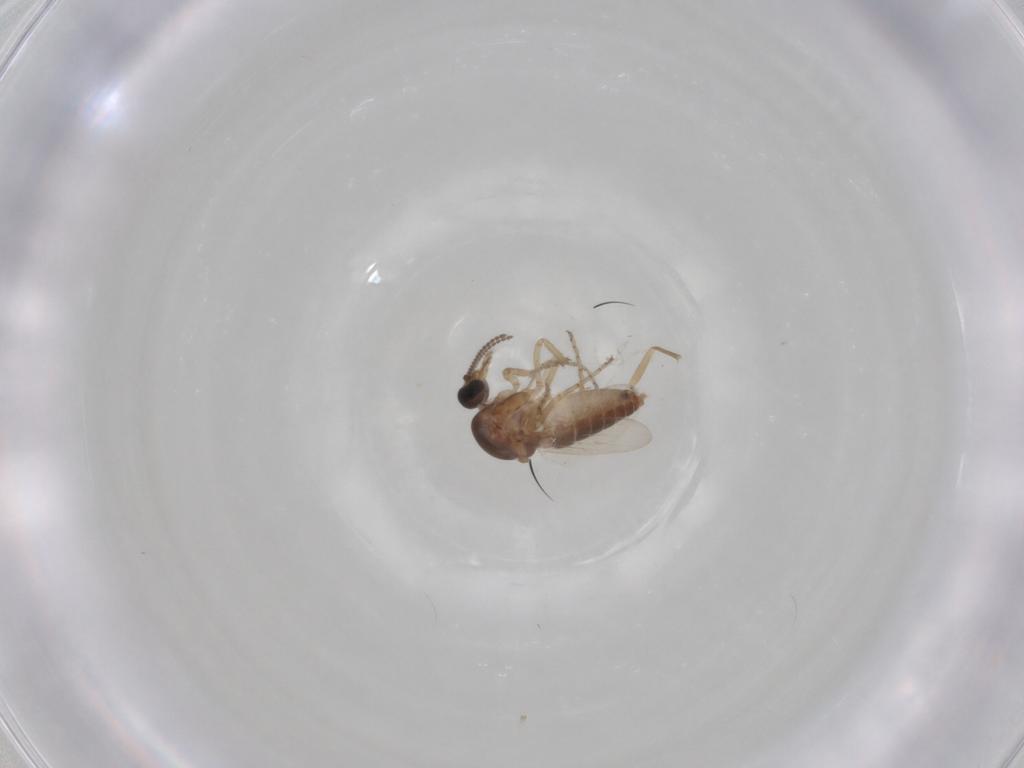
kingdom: Animalia
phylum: Arthropoda
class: Insecta
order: Diptera
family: Ceratopogonidae
